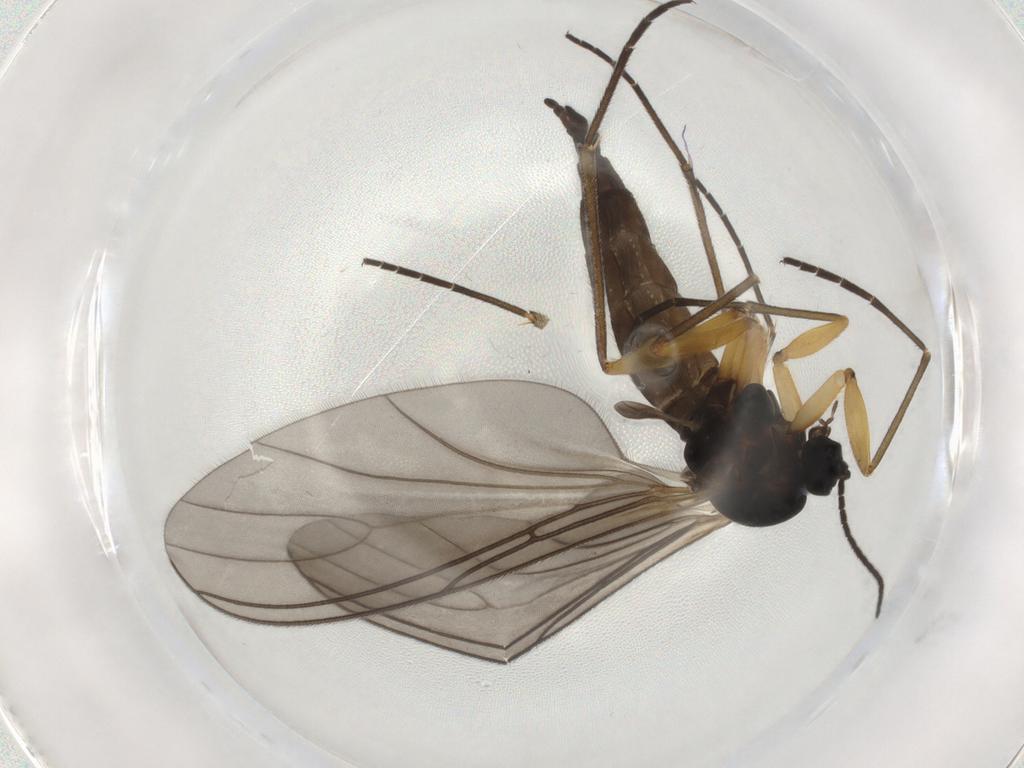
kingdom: Animalia
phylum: Arthropoda
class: Insecta
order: Diptera
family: Sciaridae
